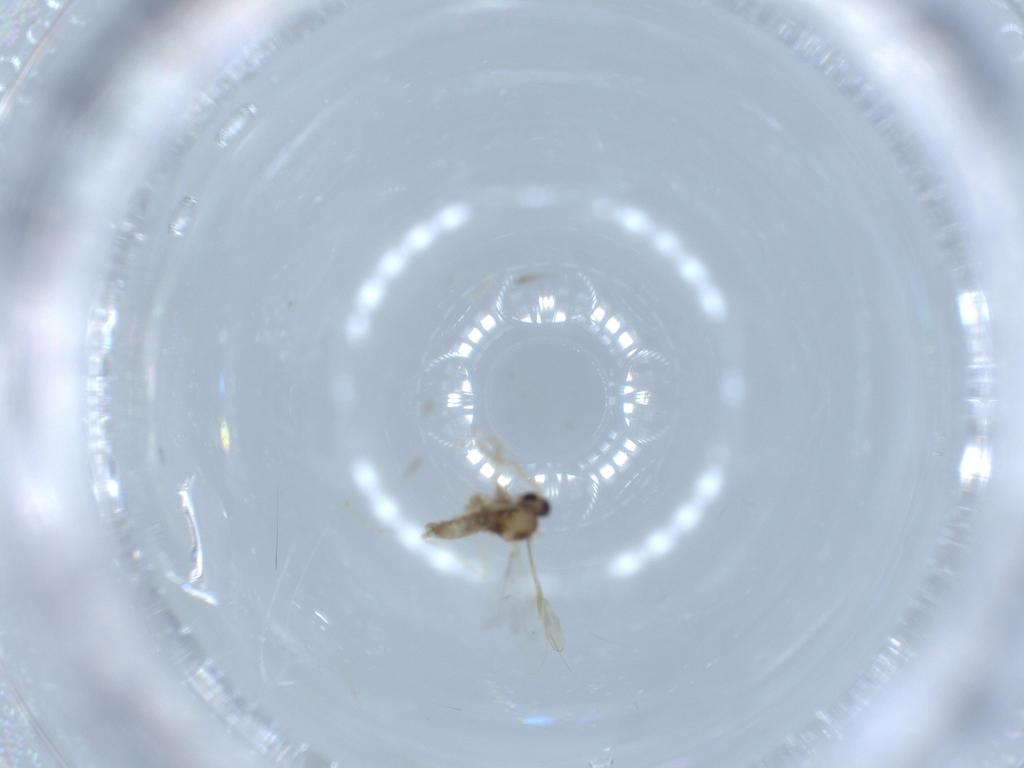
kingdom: Animalia
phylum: Arthropoda
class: Insecta
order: Diptera
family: Cecidomyiidae
